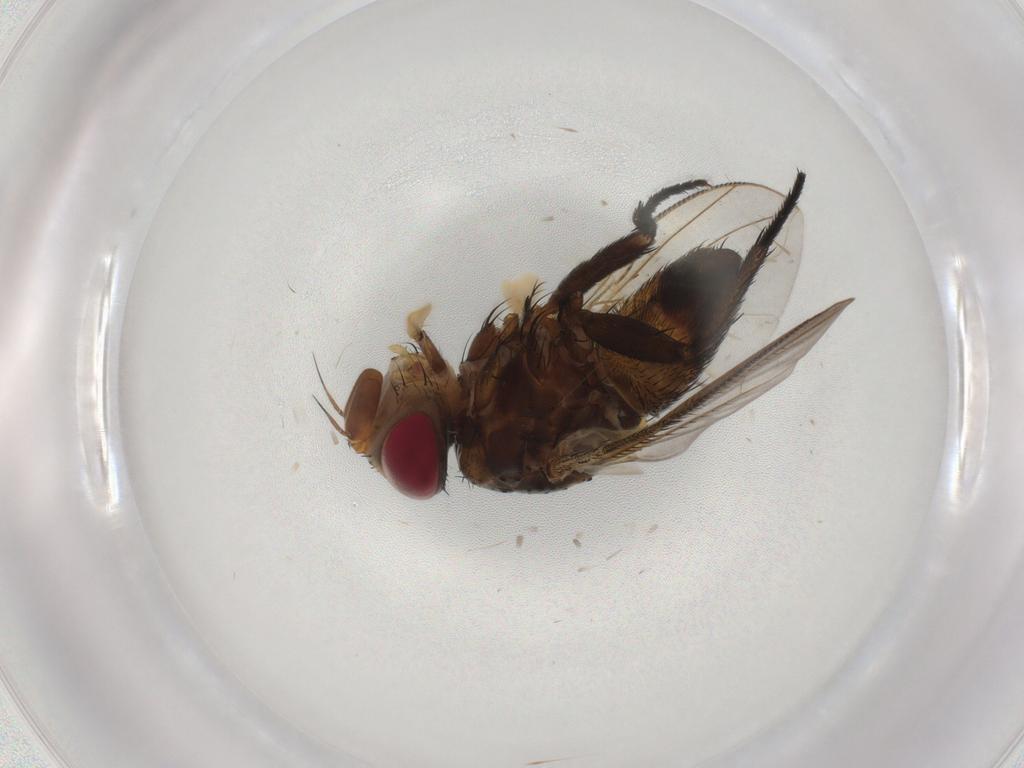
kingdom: Animalia
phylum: Arthropoda
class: Insecta
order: Diptera
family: Chironomidae
